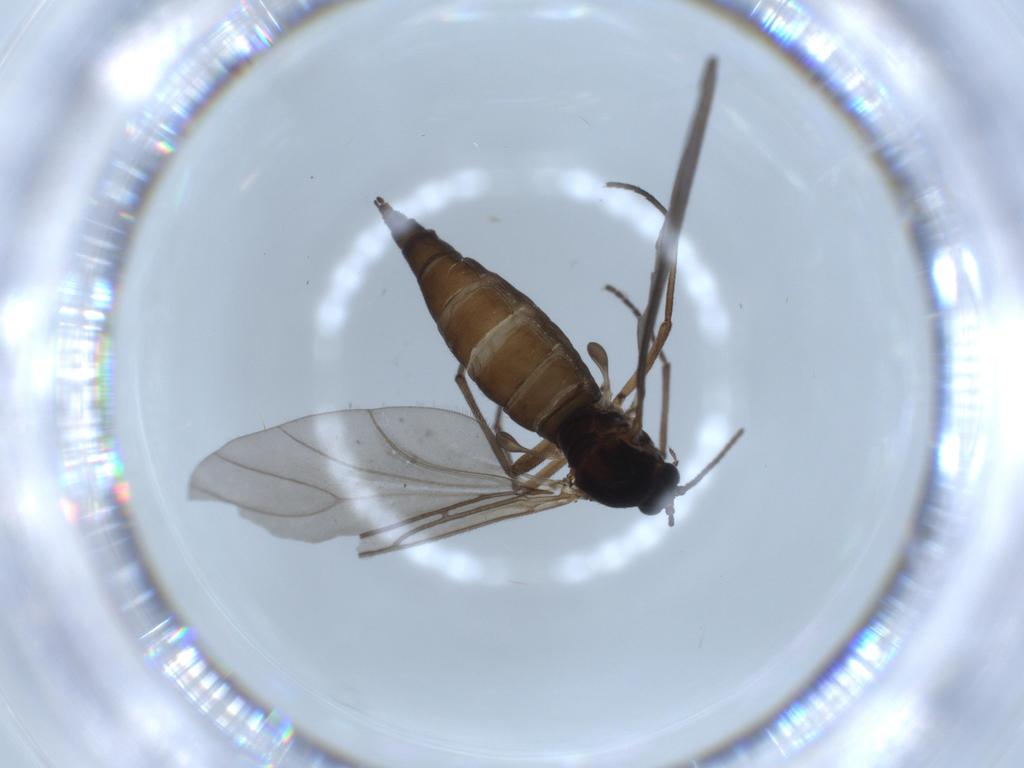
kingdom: Animalia
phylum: Arthropoda
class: Insecta
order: Diptera
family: Sciaridae
